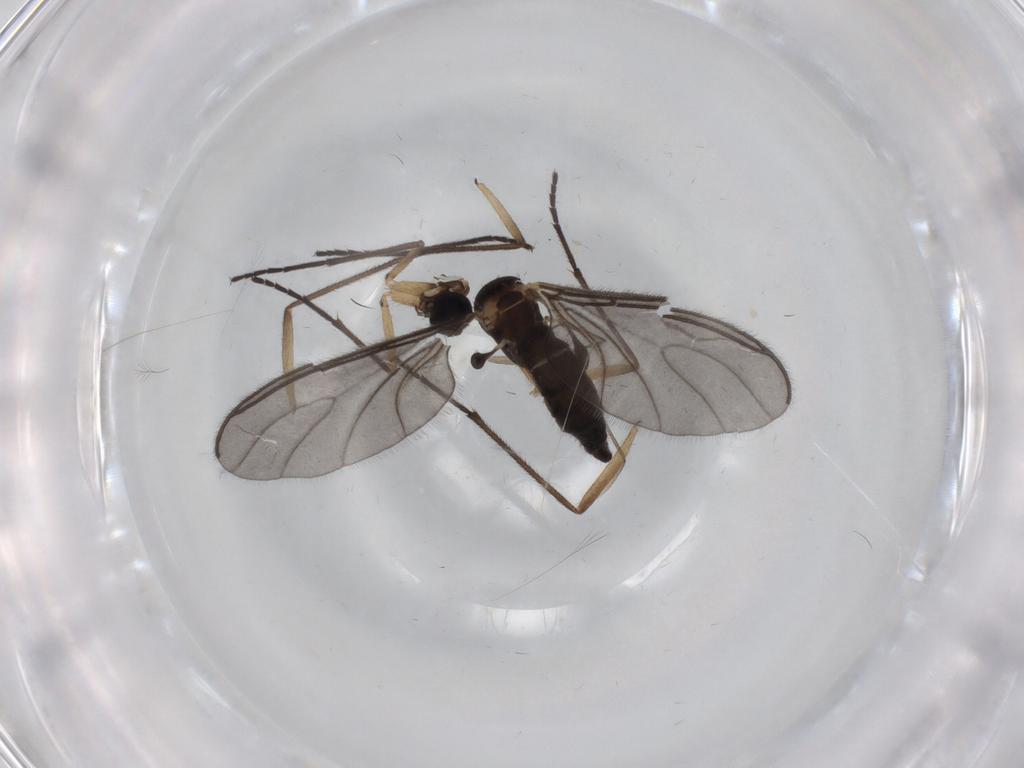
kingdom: Animalia
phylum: Arthropoda
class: Insecta
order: Diptera
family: Sciaridae
